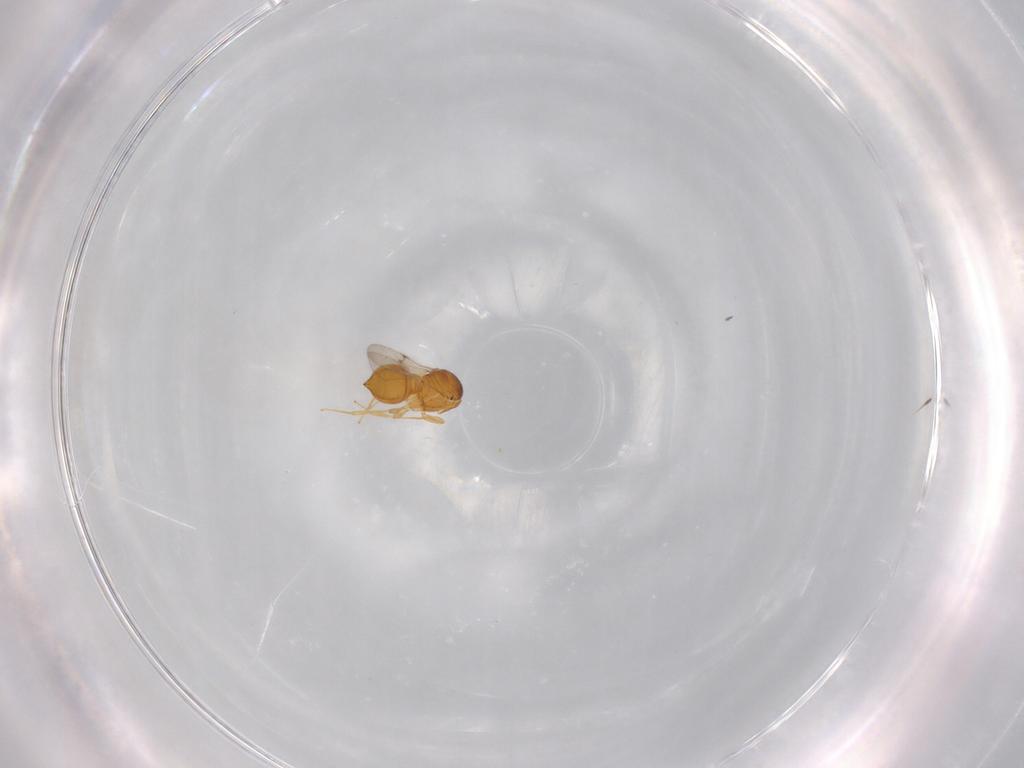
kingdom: Animalia
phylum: Arthropoda
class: Insecta
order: Hymenoptera
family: Scelionidae
